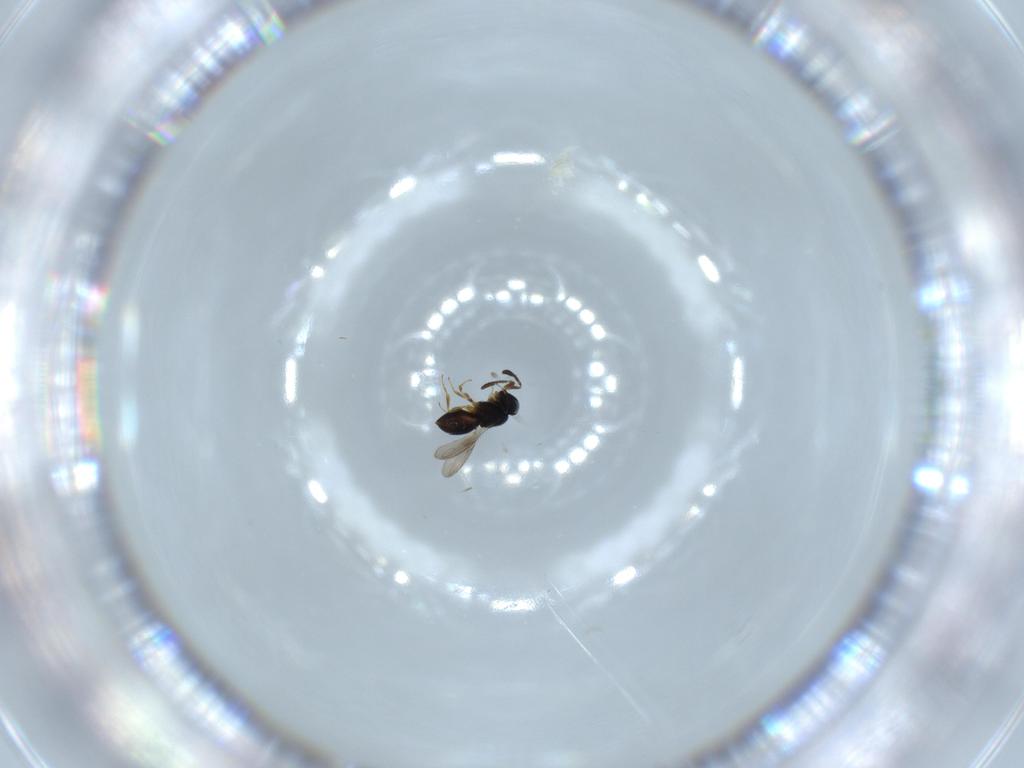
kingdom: Animalia
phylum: Arthropoda
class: Insecta
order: Hymenoptera
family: Scelionidae
